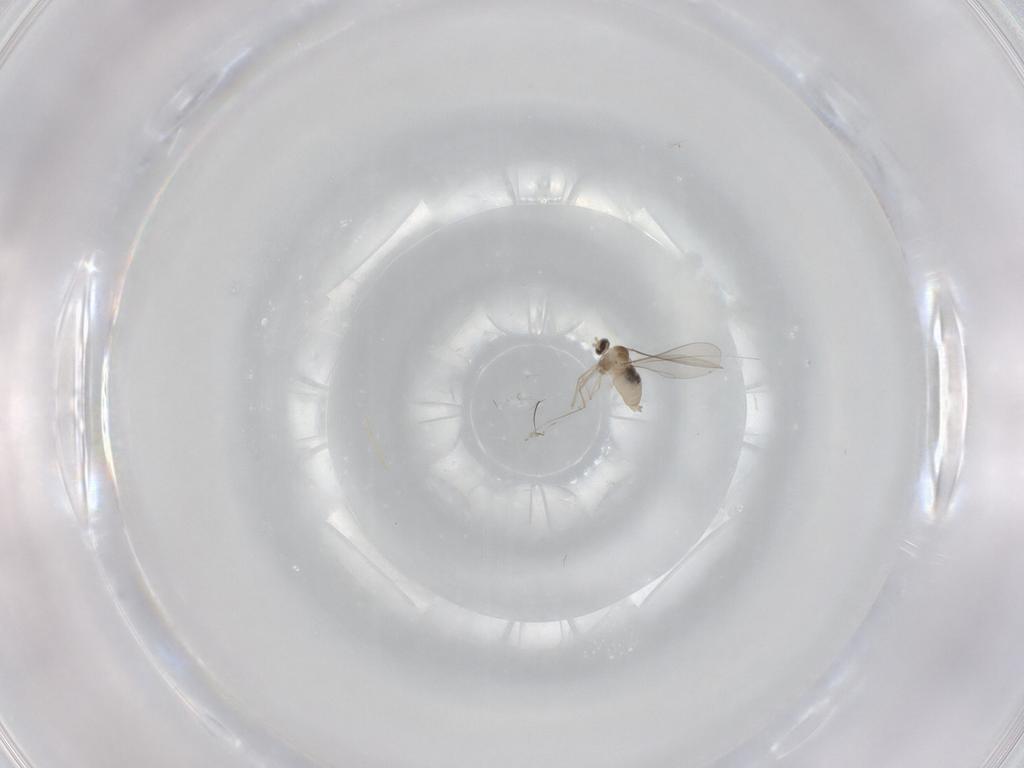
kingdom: Animalia
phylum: Arthropoda
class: Insecta
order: Diptera
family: Cecidomyiidae
